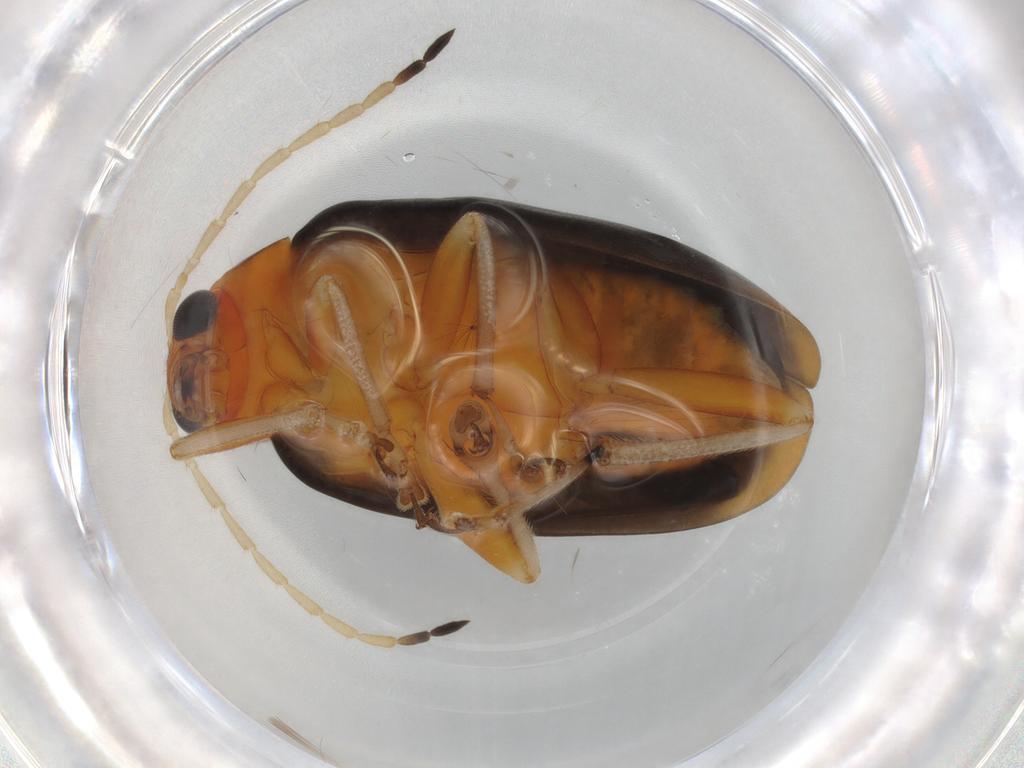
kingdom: Animalia
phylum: Arthropoda
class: Insecta
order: Coleoptera
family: Chrysomelidae
